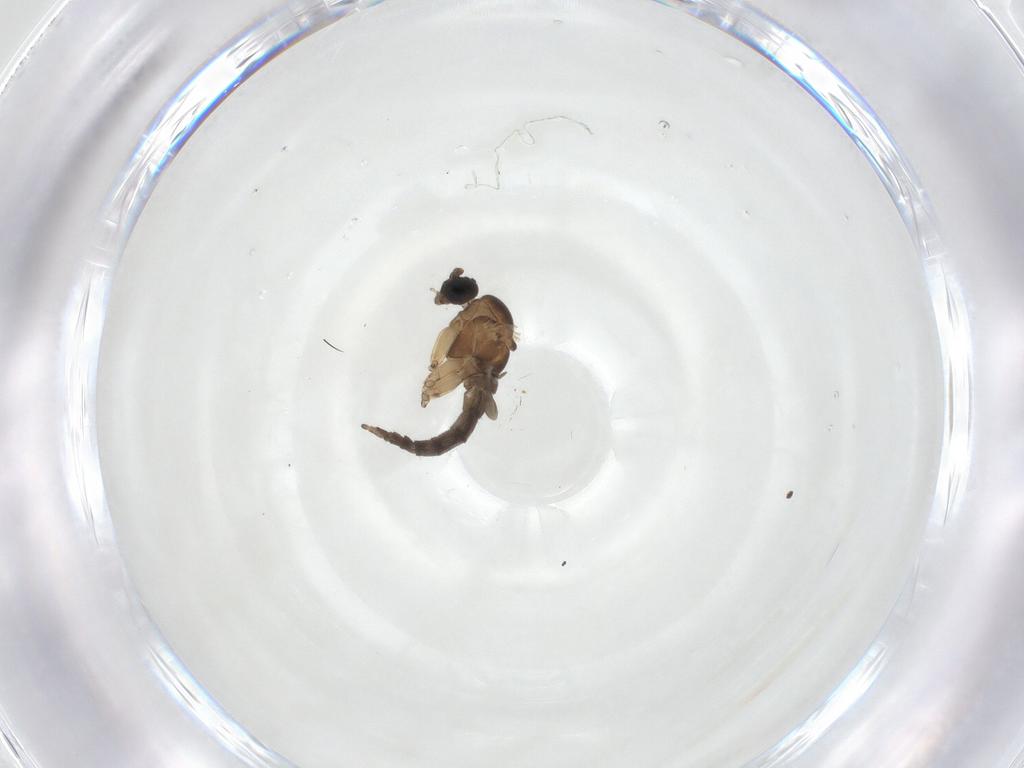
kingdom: Animalia
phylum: Arthropoda
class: Insecta
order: Diptera
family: Sciaridae
